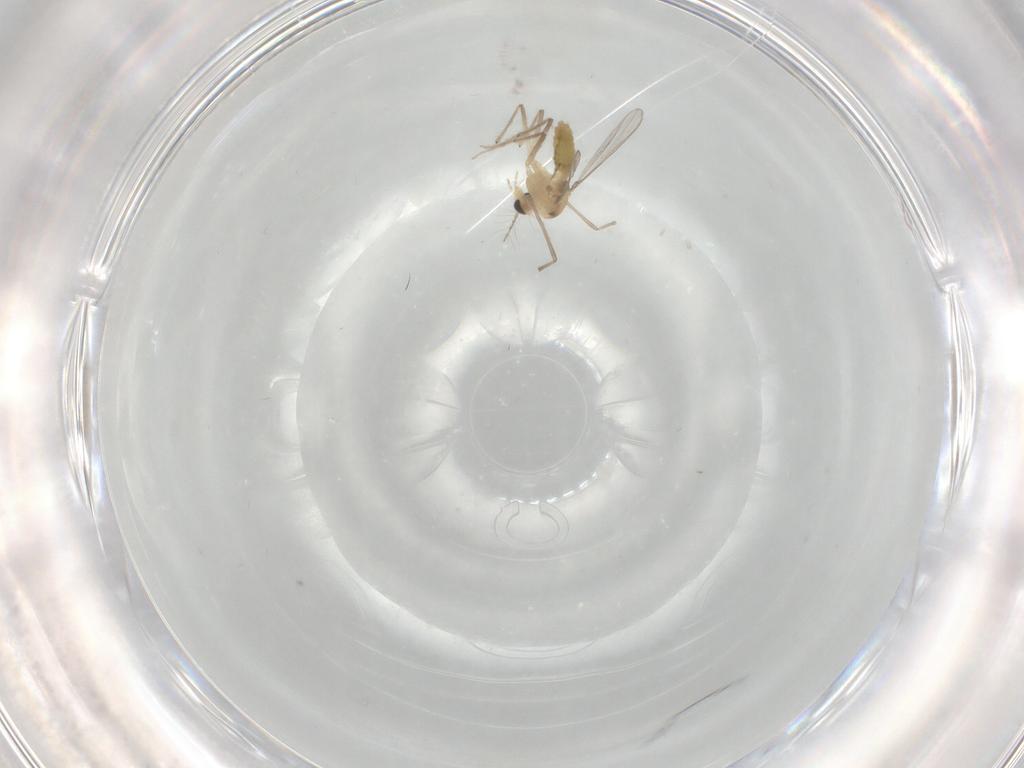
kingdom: Animalia
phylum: Arthropoda
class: Insecta
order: Diptera
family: Chironomidae
